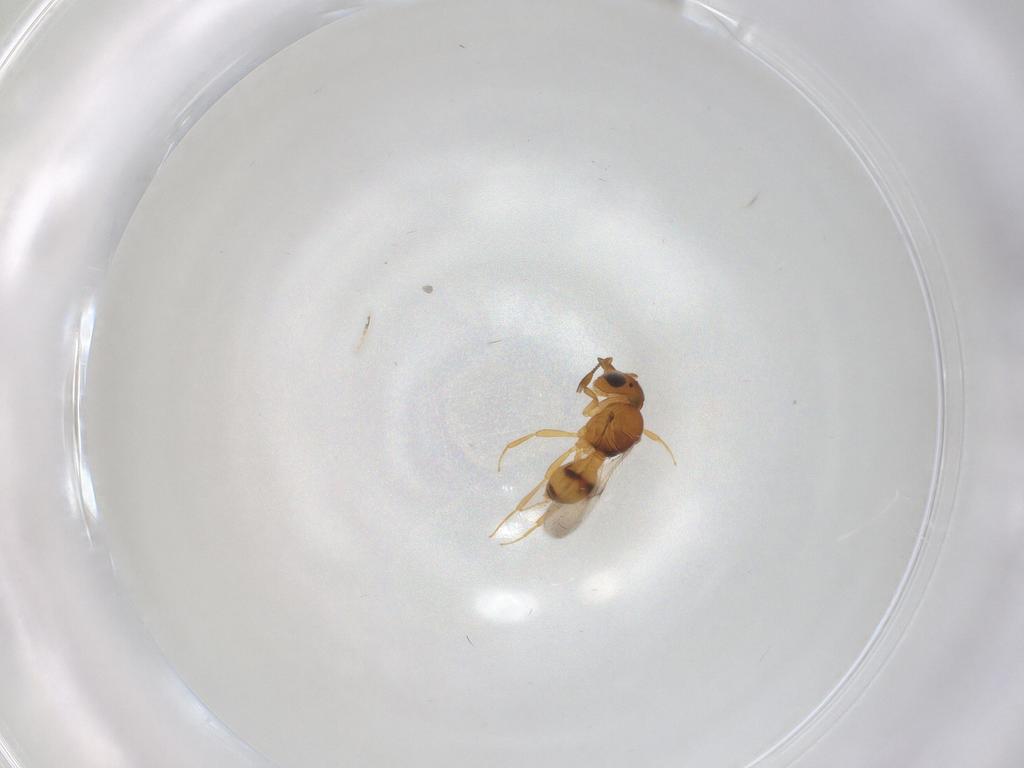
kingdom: Animalia
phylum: Arthropoda
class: Insecta
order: Hymenoptera
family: Scelionidae
